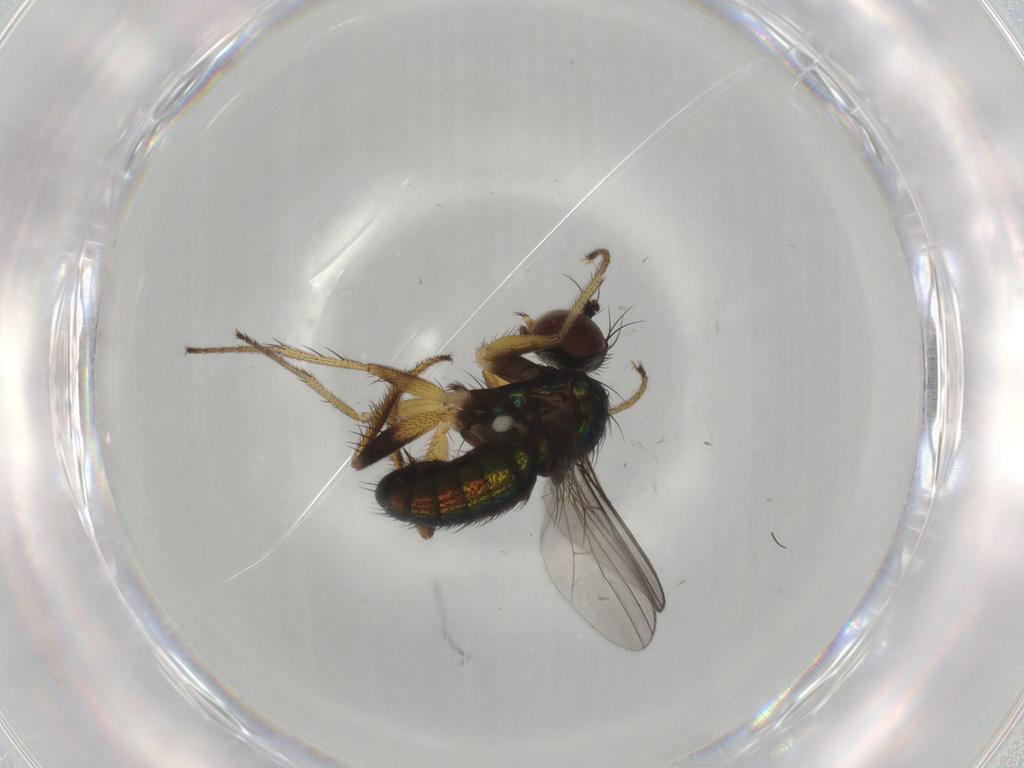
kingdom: Animalia
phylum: Arthropoda
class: Insecta
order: Diptera
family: Dolichopodidae
